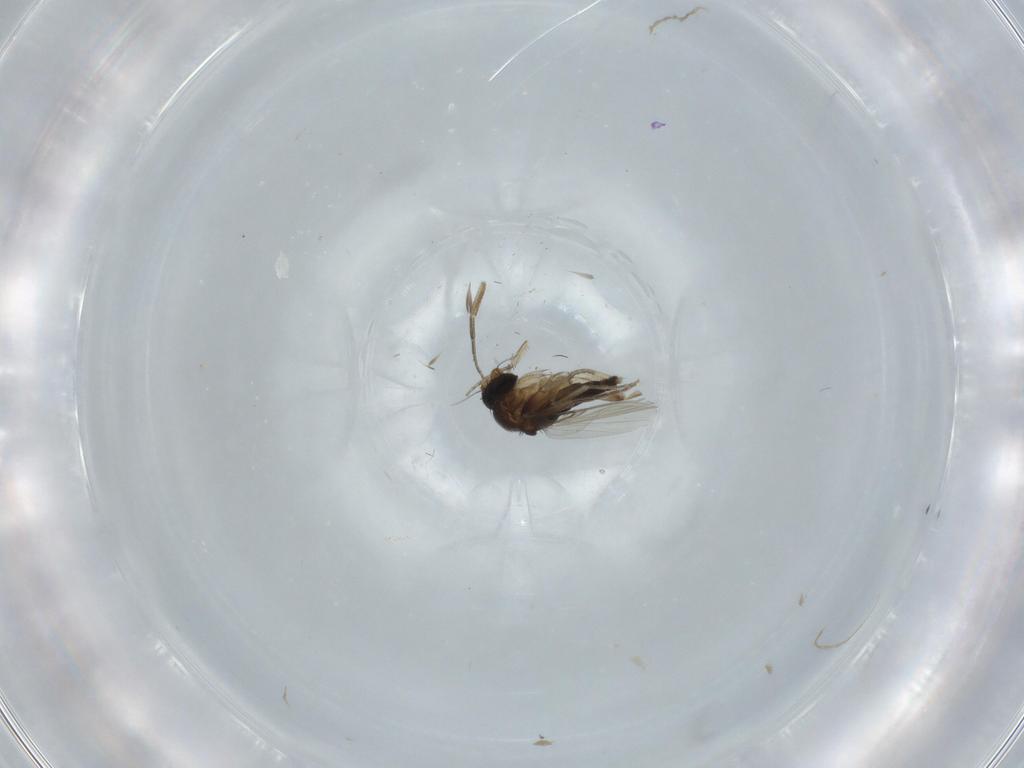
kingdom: Animalia
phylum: Arthropoda
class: Insecta
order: Diptera
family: Phoridae
